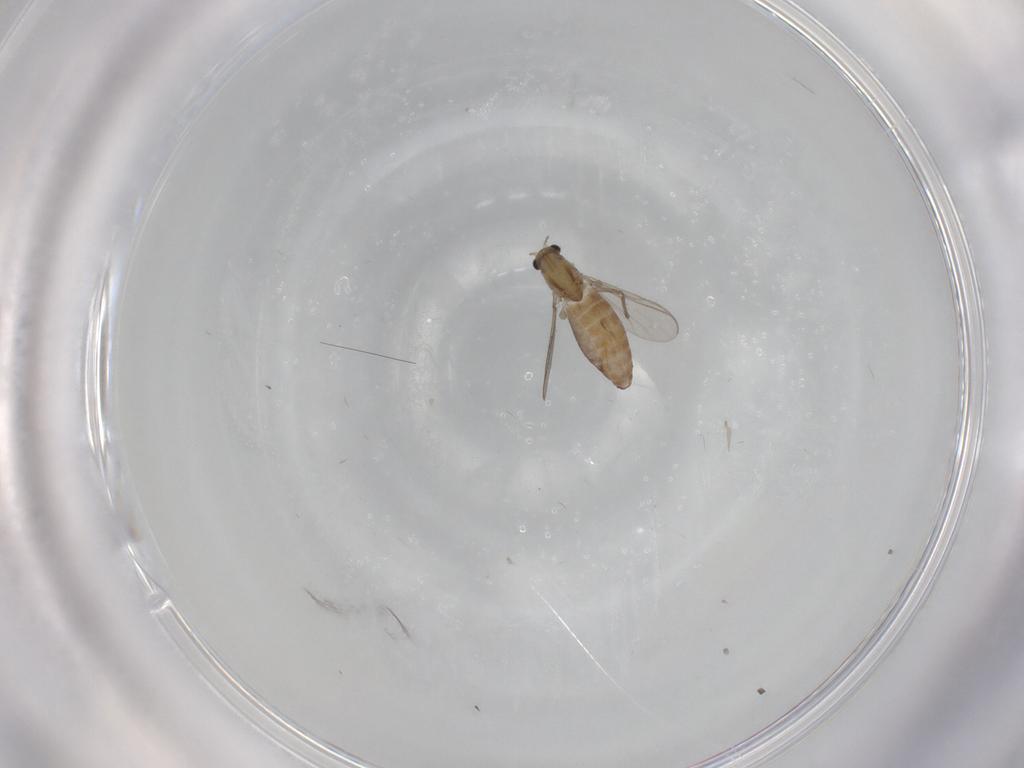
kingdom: Animalia
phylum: Arthropoda
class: Insecta
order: Diptera
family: Chironomidae
